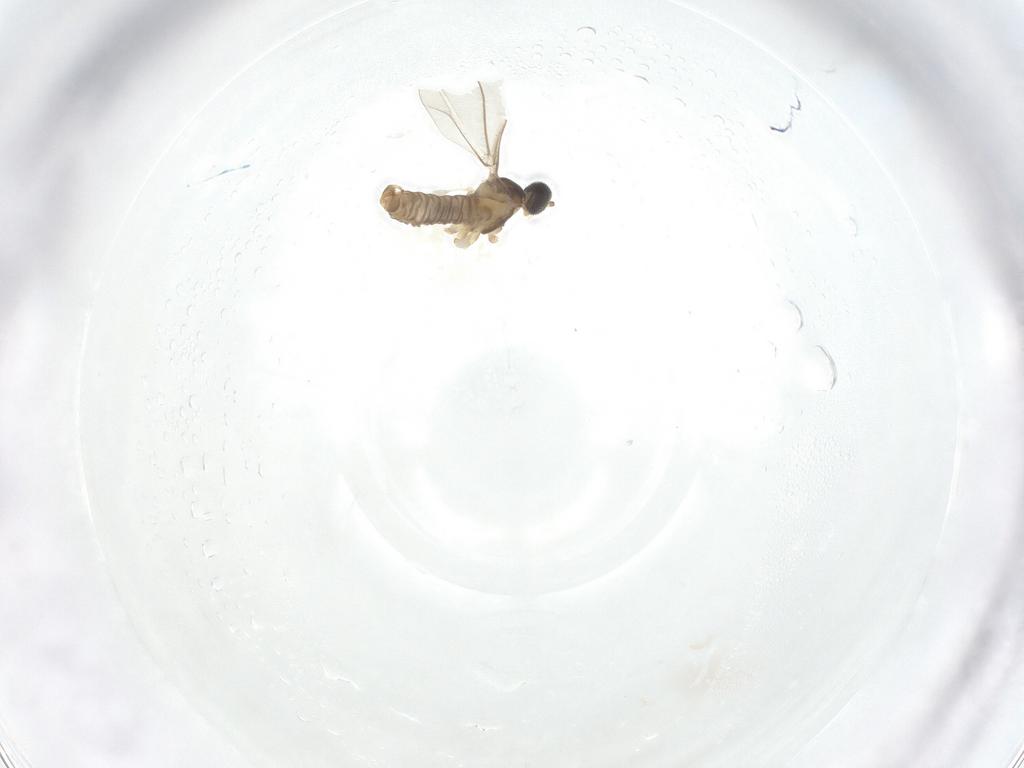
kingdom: Animalia
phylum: Arthropoda
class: Insecta
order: Diptera
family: Cecidomyiidae
